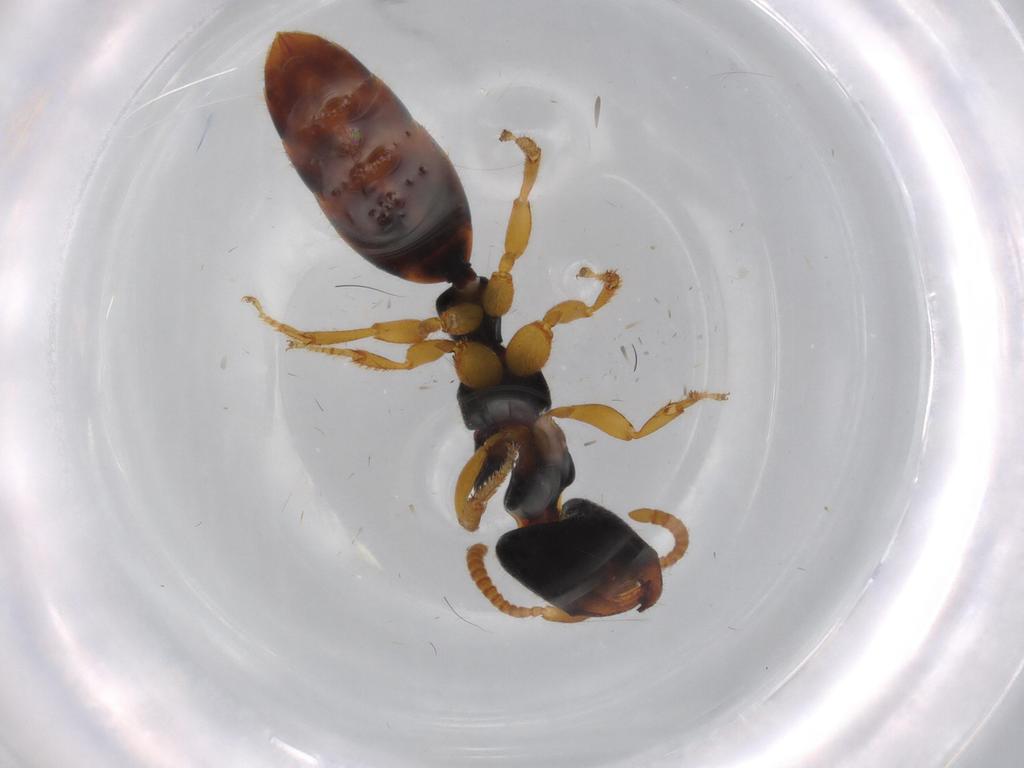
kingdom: Animalia
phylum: Arthropoda
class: Insecta
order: Hymenoptera
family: Bethylidae
